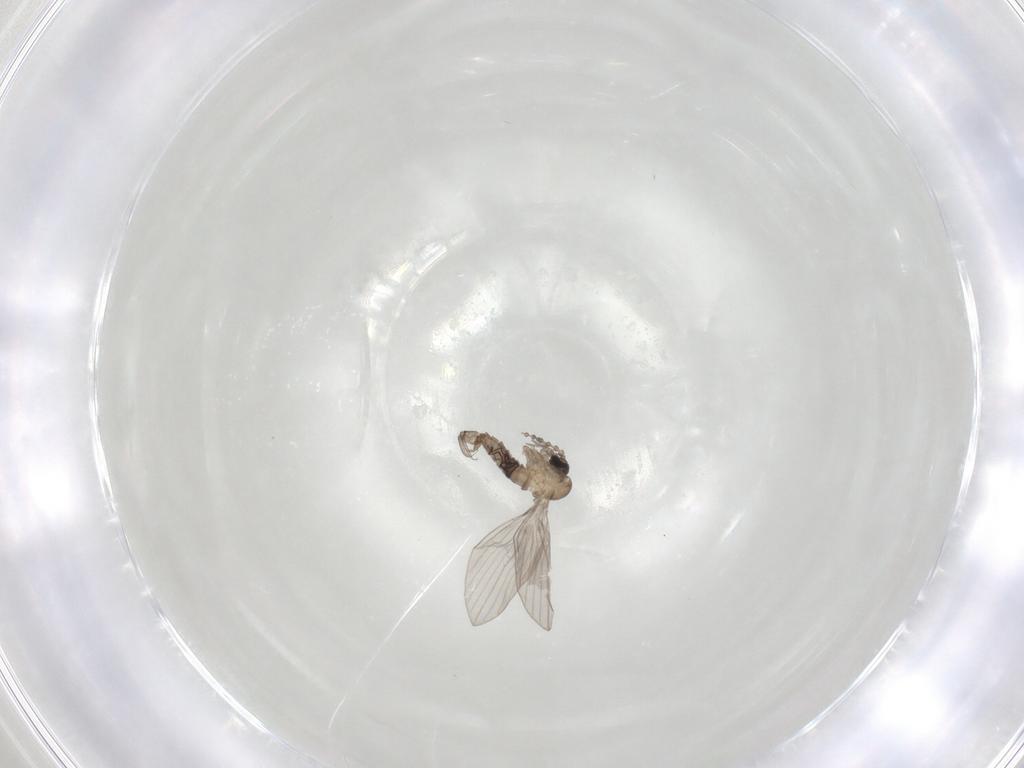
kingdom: Animalia
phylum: Arthropoda
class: Insecta
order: Diptera
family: Psychodidae
